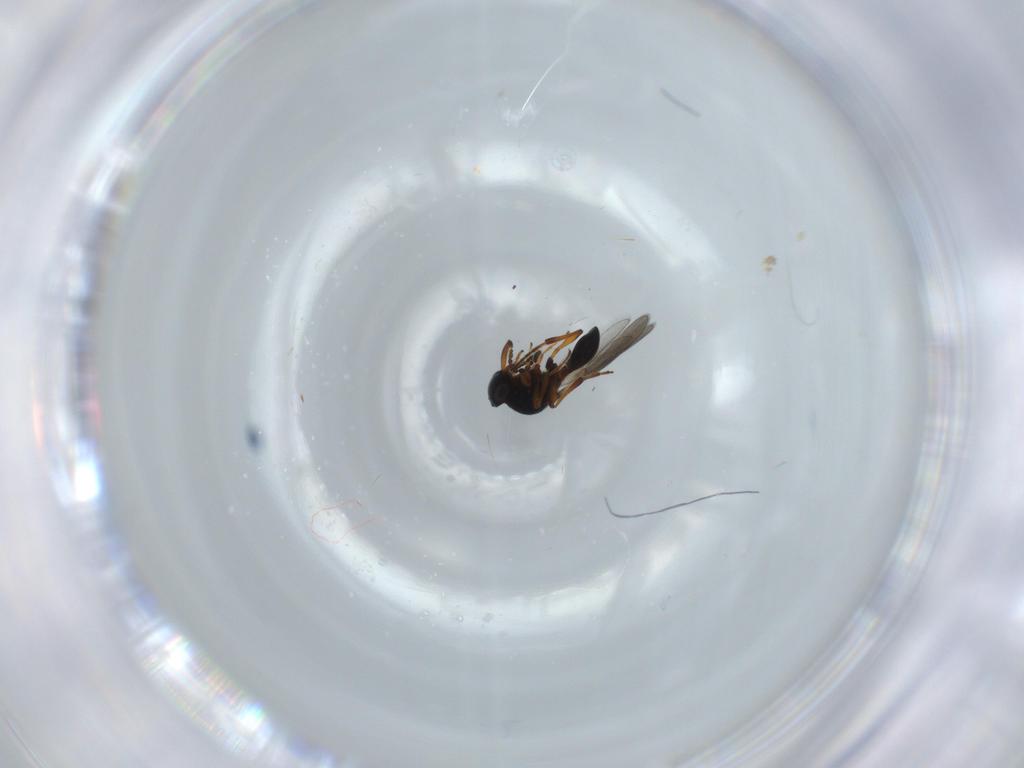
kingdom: Animalia
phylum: Arthropoda
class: Insecta
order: Hymenoptera
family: Platygastridae
